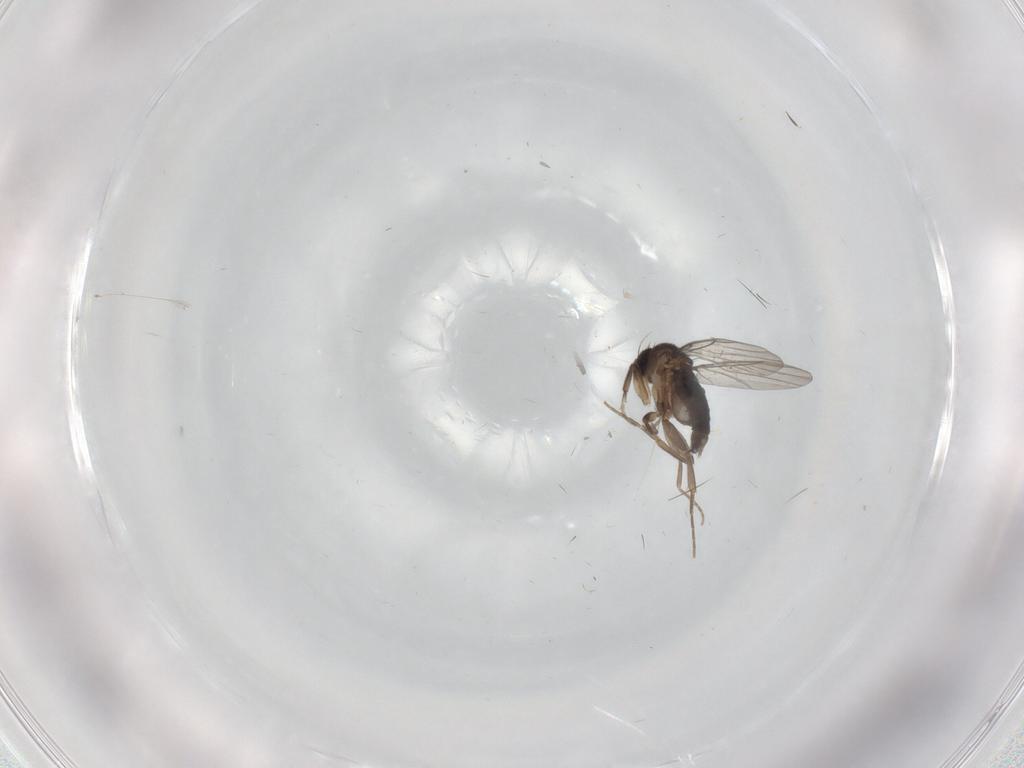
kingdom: Animalia
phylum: Arthropoda
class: Insecta
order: Diptera
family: Phoridae
